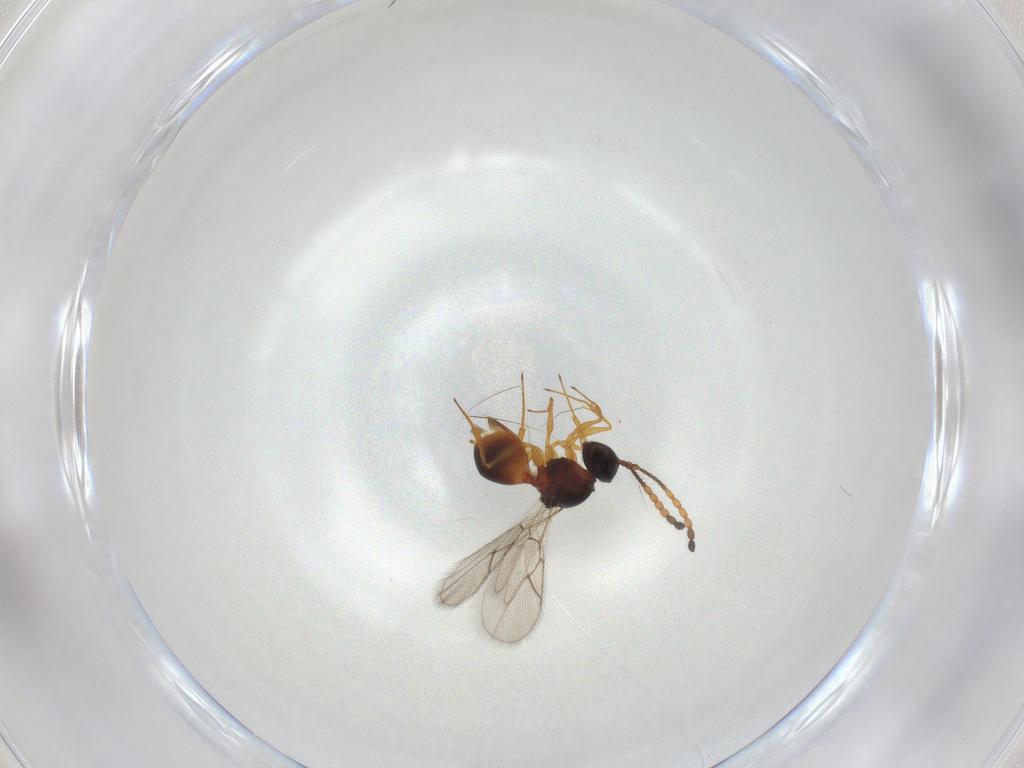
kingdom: Animalia
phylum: Arthropoda
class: Insecta
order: Hymenoptera
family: Figitidae
